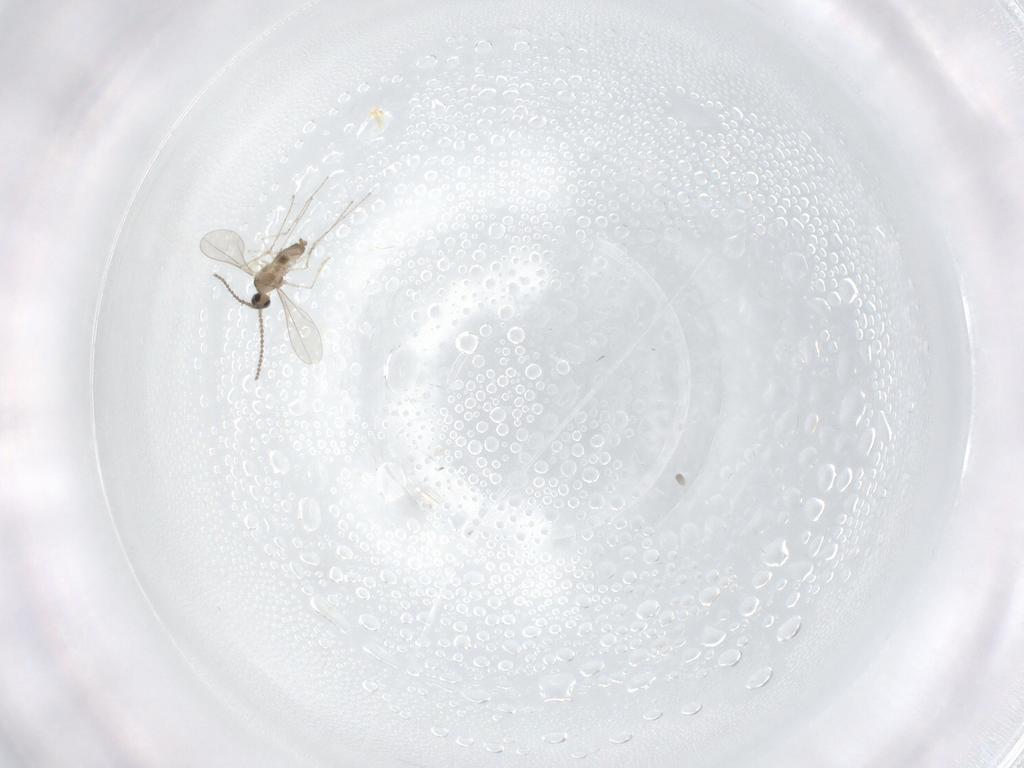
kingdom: Animalia
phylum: Arthropoda
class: Insecta
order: Diptera
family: Cecidomyiidae
